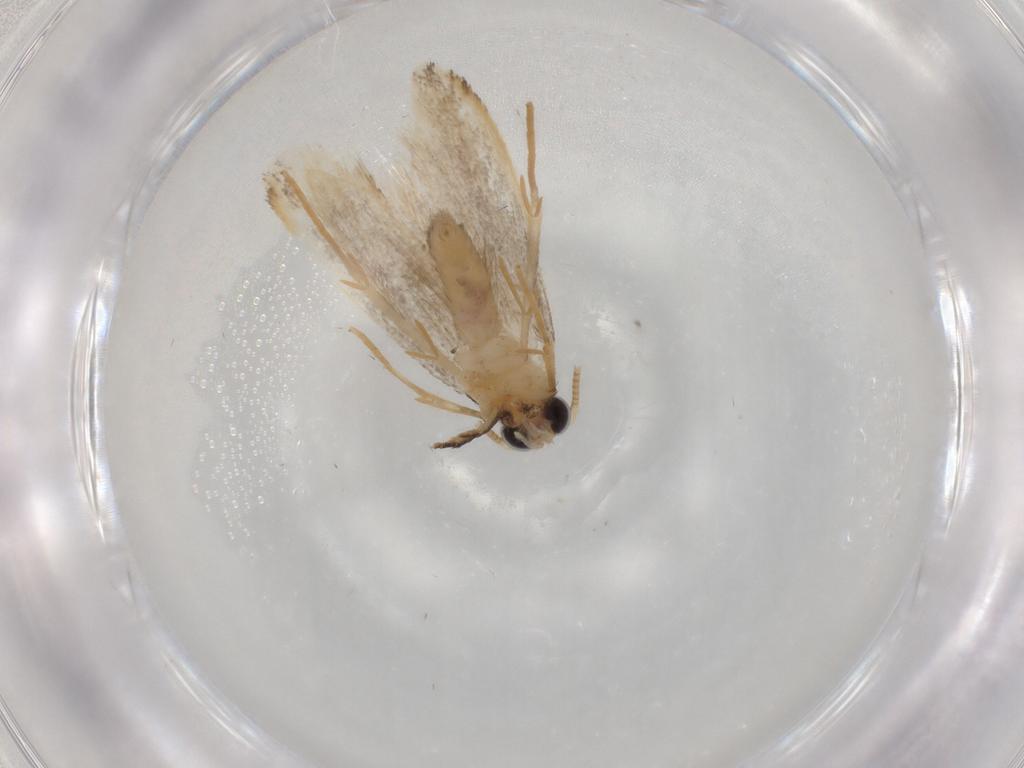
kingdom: Animalia
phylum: Arthropoda
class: Insecta
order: Lepidoptera
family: Nepticulidae
